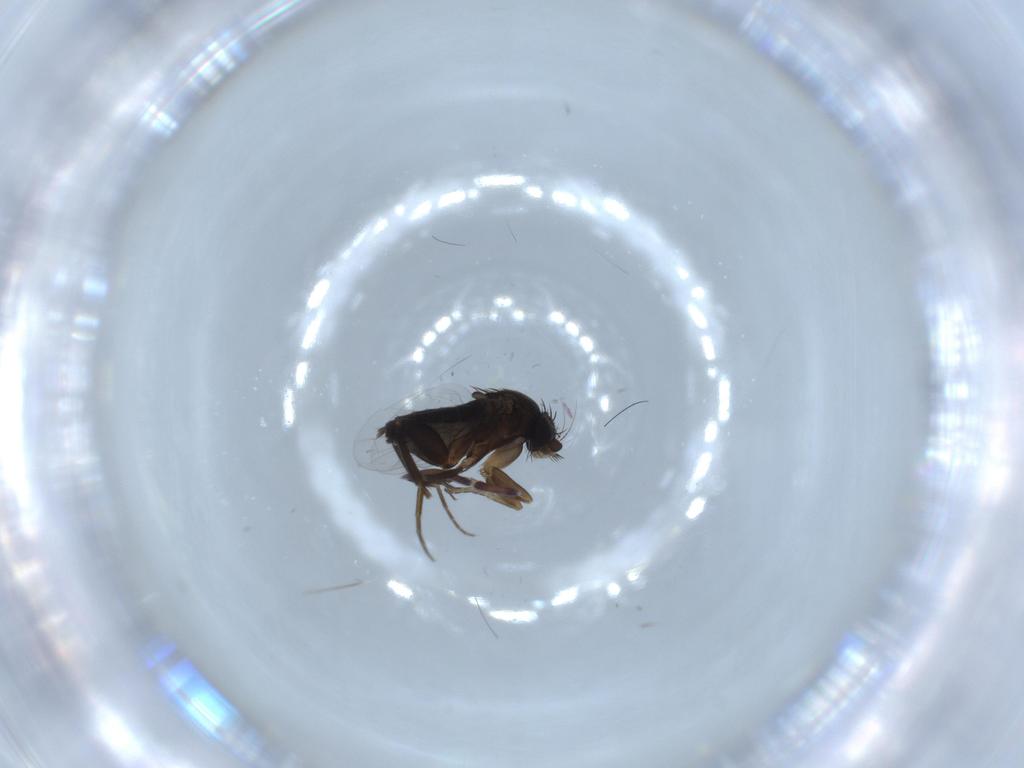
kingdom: Animalia
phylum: Arthropoda
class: Insecta
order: Diptera
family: Phoridae
